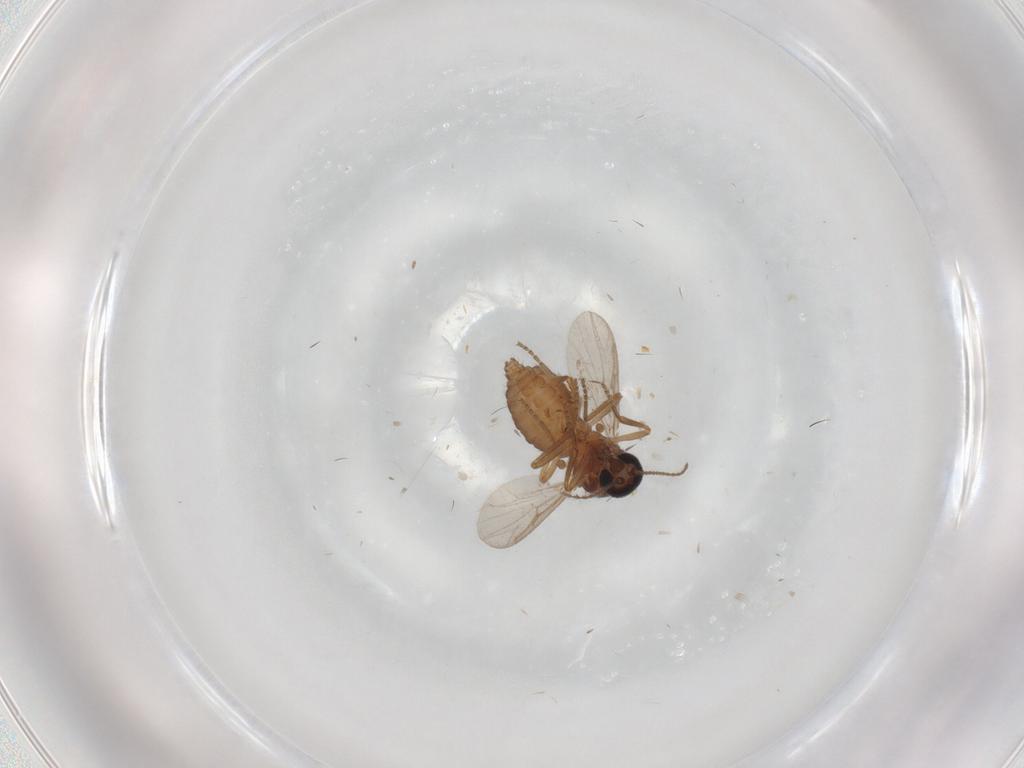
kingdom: Animalia
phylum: Arthropoda
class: Insecta
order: Diptera
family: Ceratopogonidae
